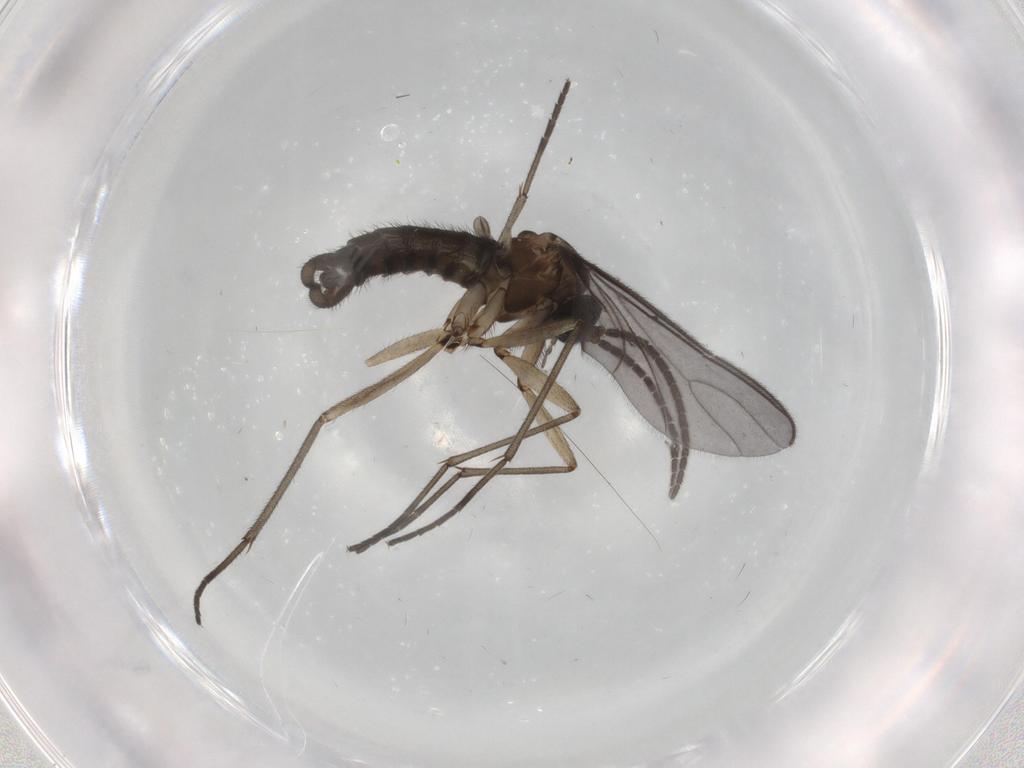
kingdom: Animalia
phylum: Arthropoda
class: Insecta
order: Diptera
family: Sciaridae
